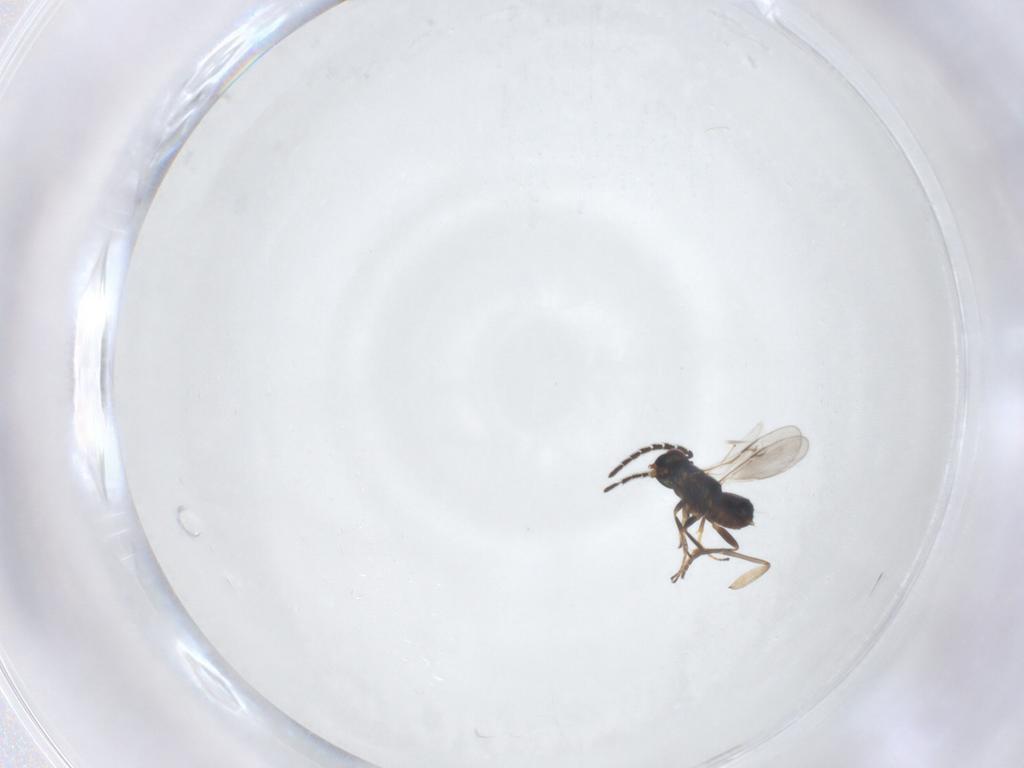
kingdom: Animalia
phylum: Arthropoda
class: Insecta
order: Hymenoptera
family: Encyrtidae
